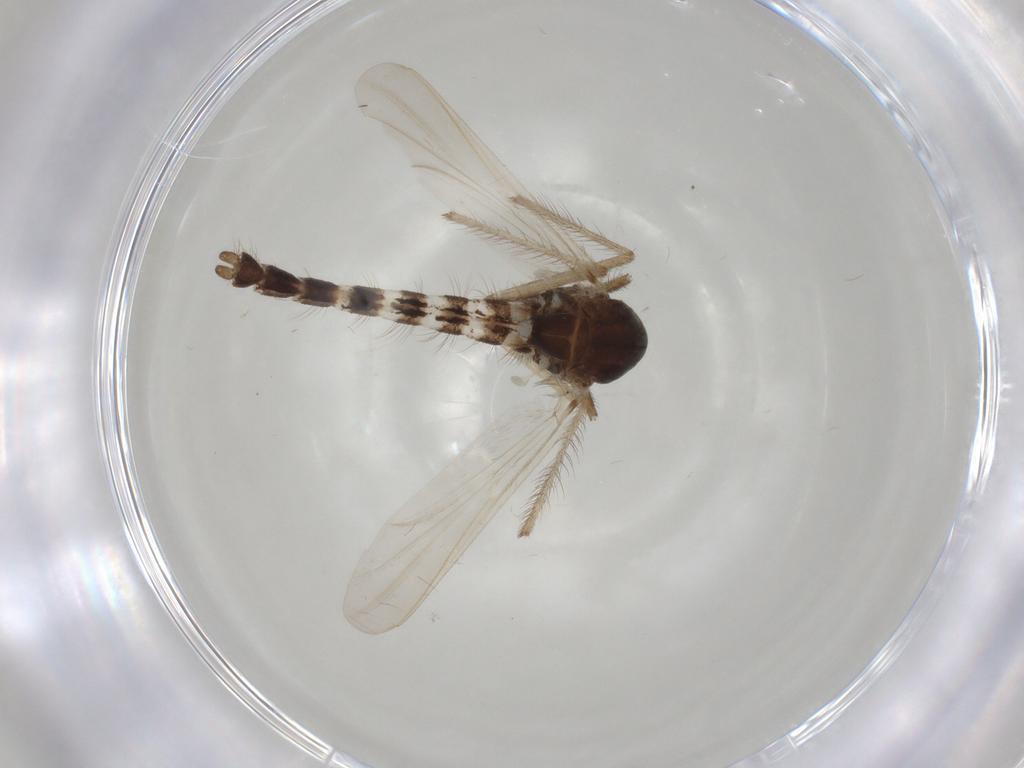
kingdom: Animalia
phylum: Arthropoda
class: Insecta
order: Diptera
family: Chironomidae
